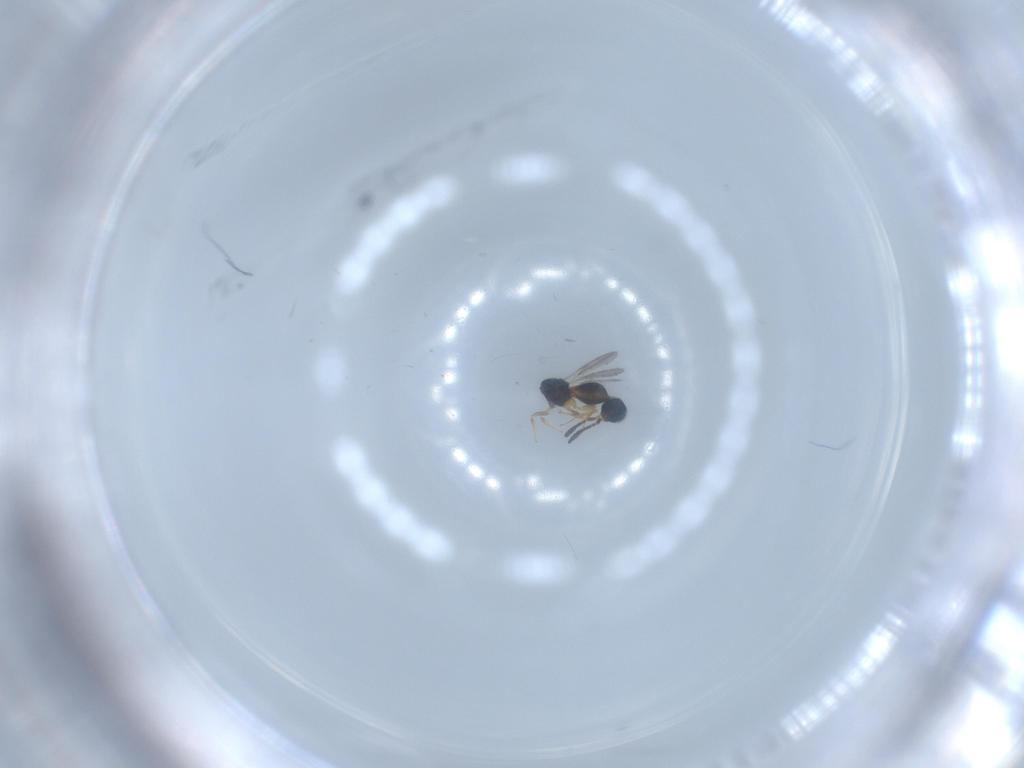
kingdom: Animalia
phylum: Arthropoda
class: Insecta
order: Hymenoptera
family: Scelionidae
